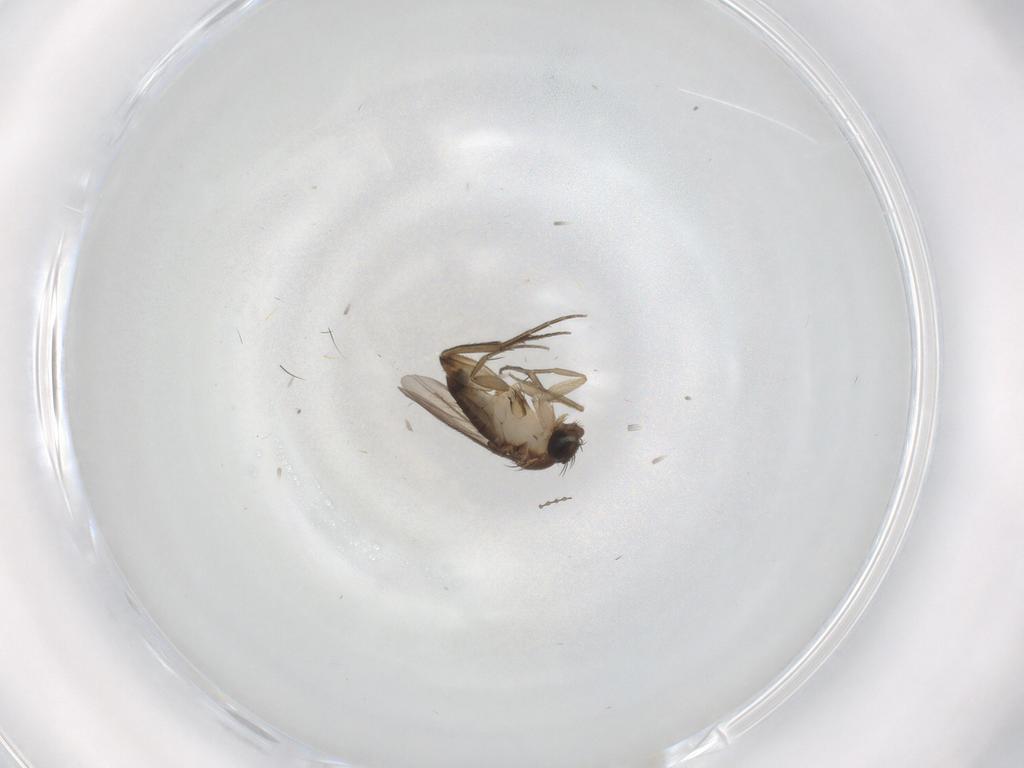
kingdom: Animalia
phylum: Arthropoda
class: Insecta
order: Diptera
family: Phoridae
